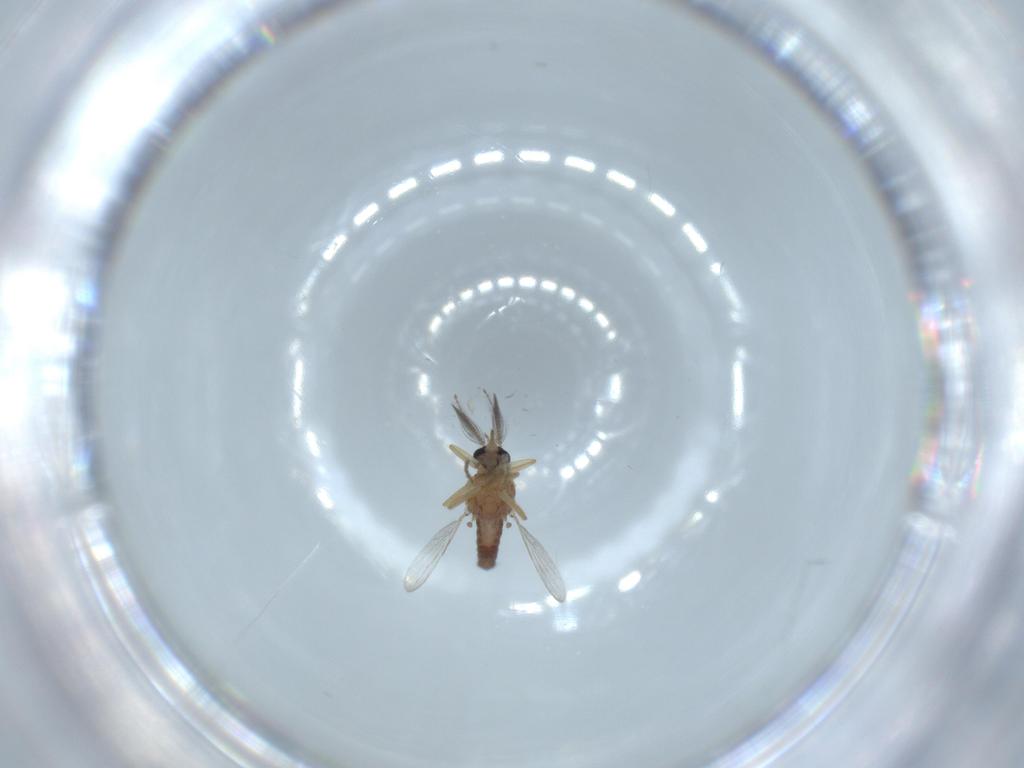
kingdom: Animalia
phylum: Arthropoda
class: Insecta
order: Diptera
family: Ceratopogonidae
